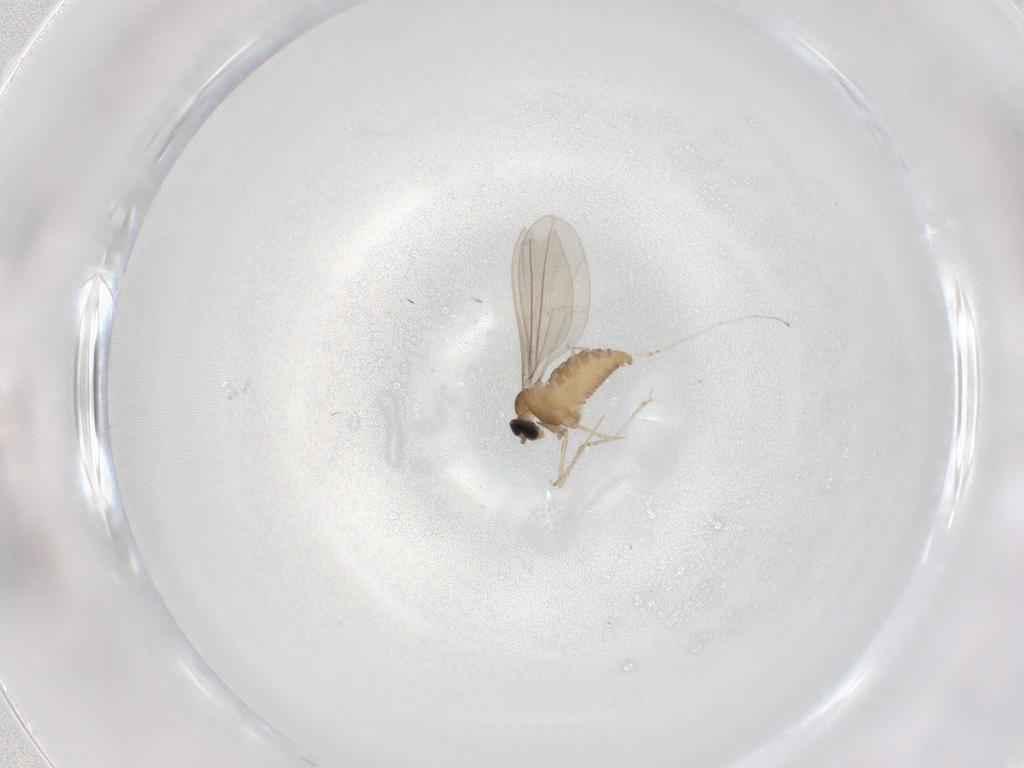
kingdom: Animalia
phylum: Arthropoda
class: Insecta
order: Diptera
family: Cecidomyiidae
